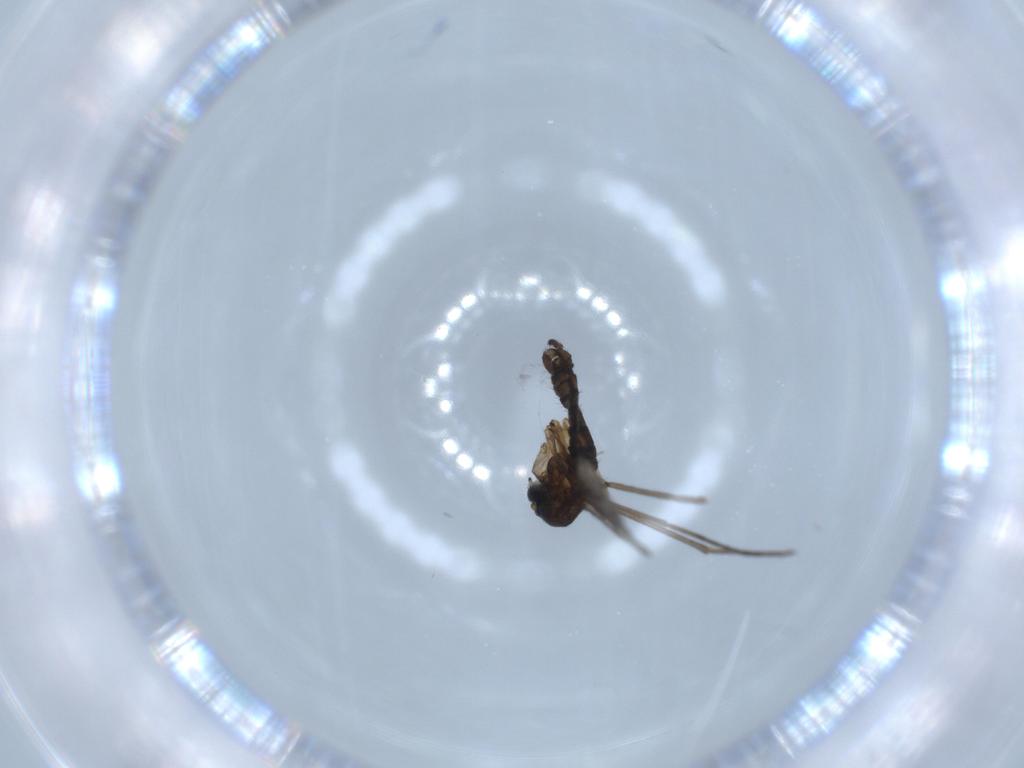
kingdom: Animalia
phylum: Arthropoda
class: Insecta
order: Diptera
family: Sciaridae
